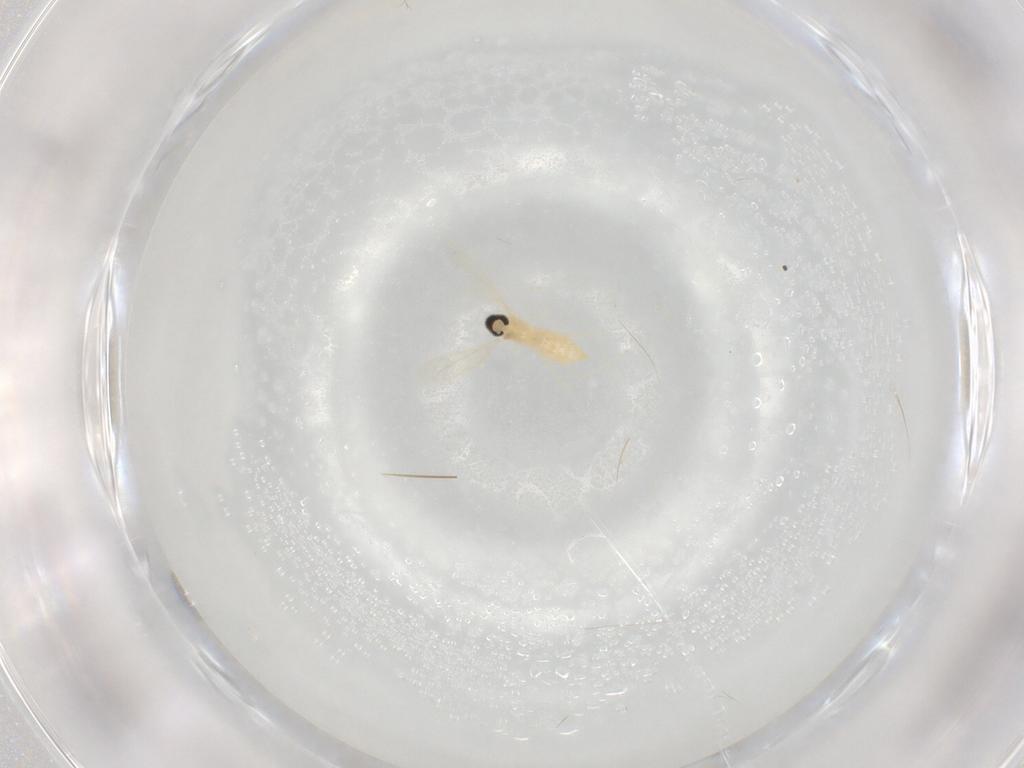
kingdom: Animalia
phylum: Arthropoda
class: Insecta
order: Diptera
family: Cecidomyiidae
